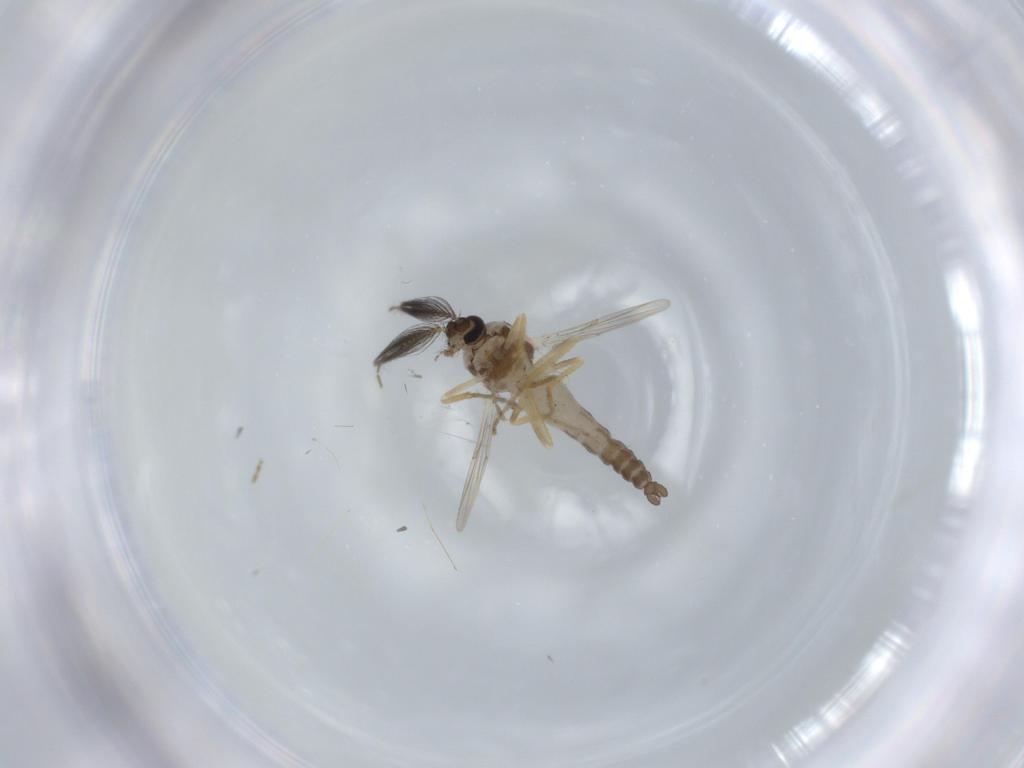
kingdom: Animalia
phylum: Arthropoda
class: Insecta
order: Diptera
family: Ceratopogonidae
